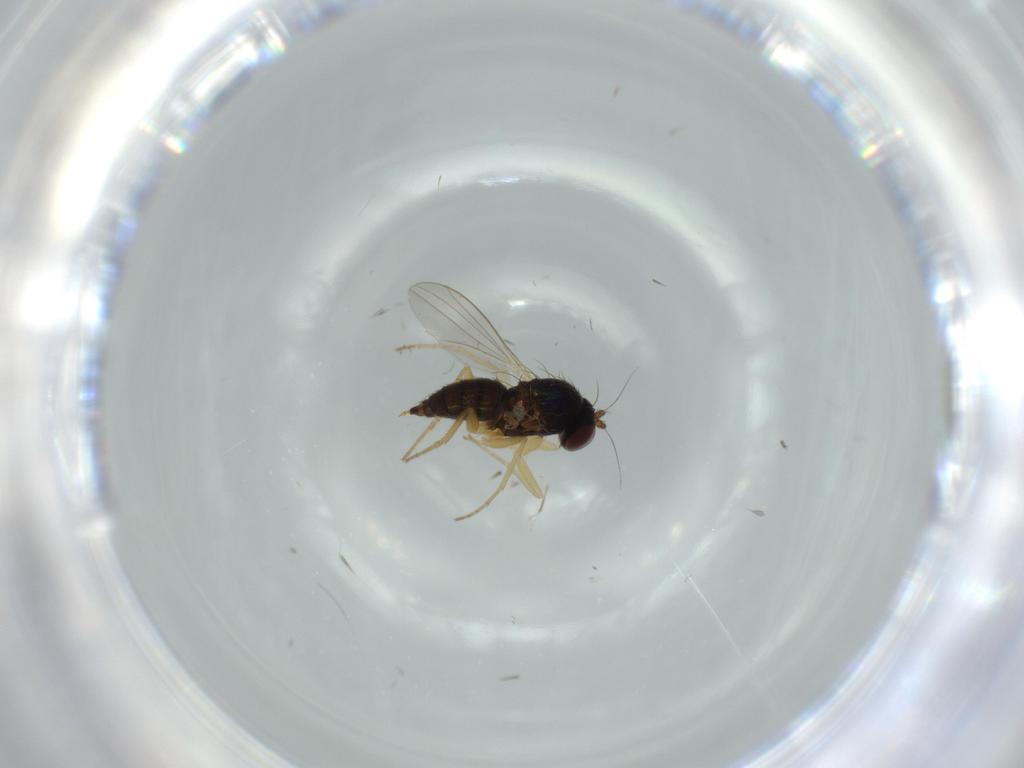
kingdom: Animalia
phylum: Arthropoda
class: Insecta
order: Diptera
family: Dolichopodidae
